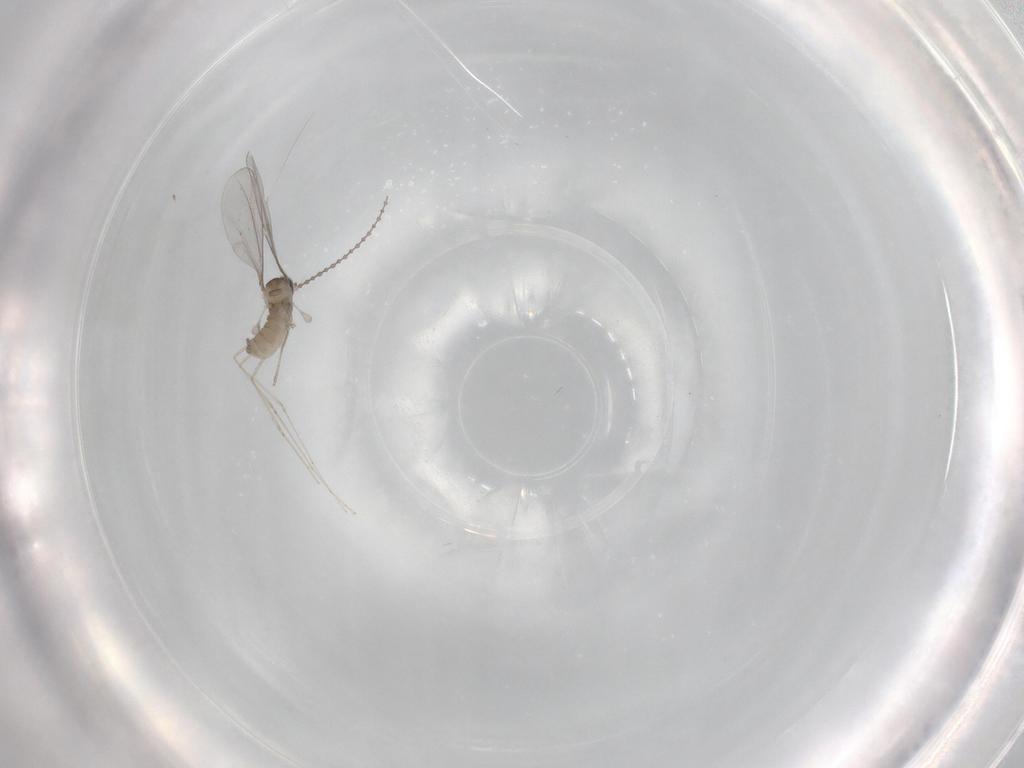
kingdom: Animalia
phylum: Arthropoda
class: Insecta
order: Diptera
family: Cecidomyiidae
